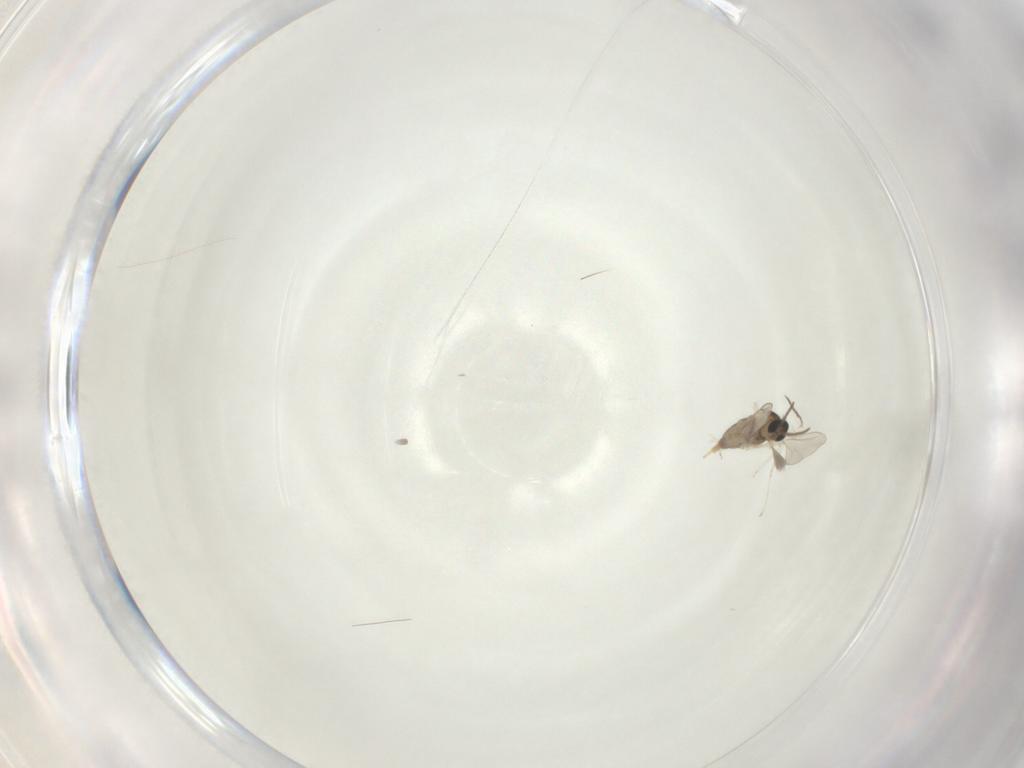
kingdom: Animalia
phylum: Arthropoda
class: Insecta
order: Diptera
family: Cecidomyiidae
